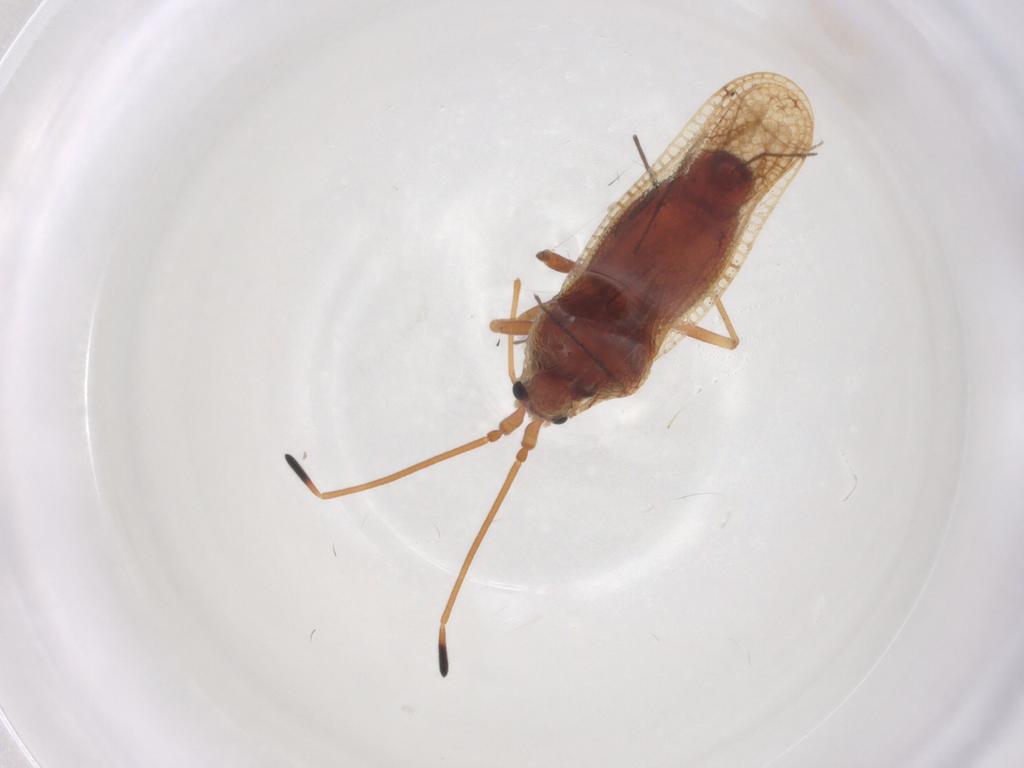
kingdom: Animalia
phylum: Arthropoda
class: Insecta
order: Hemiptera
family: Tingidae
